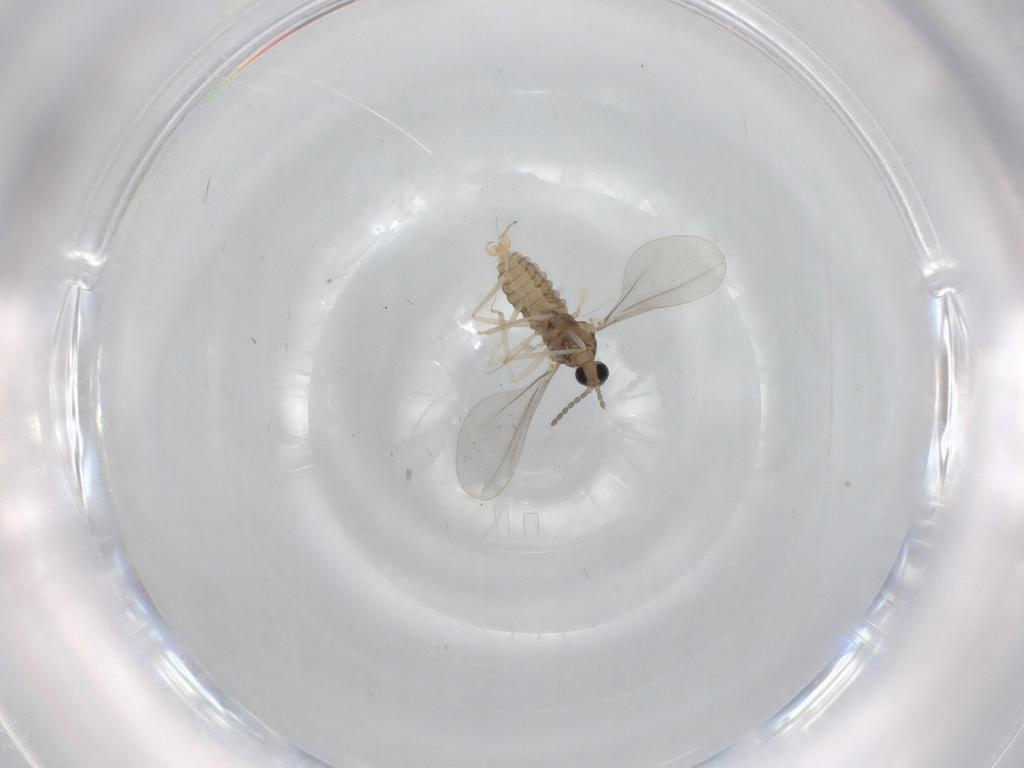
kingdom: Animalia
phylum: Arthropoda
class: Insecta
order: Diptera
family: Cecidomyiidae
